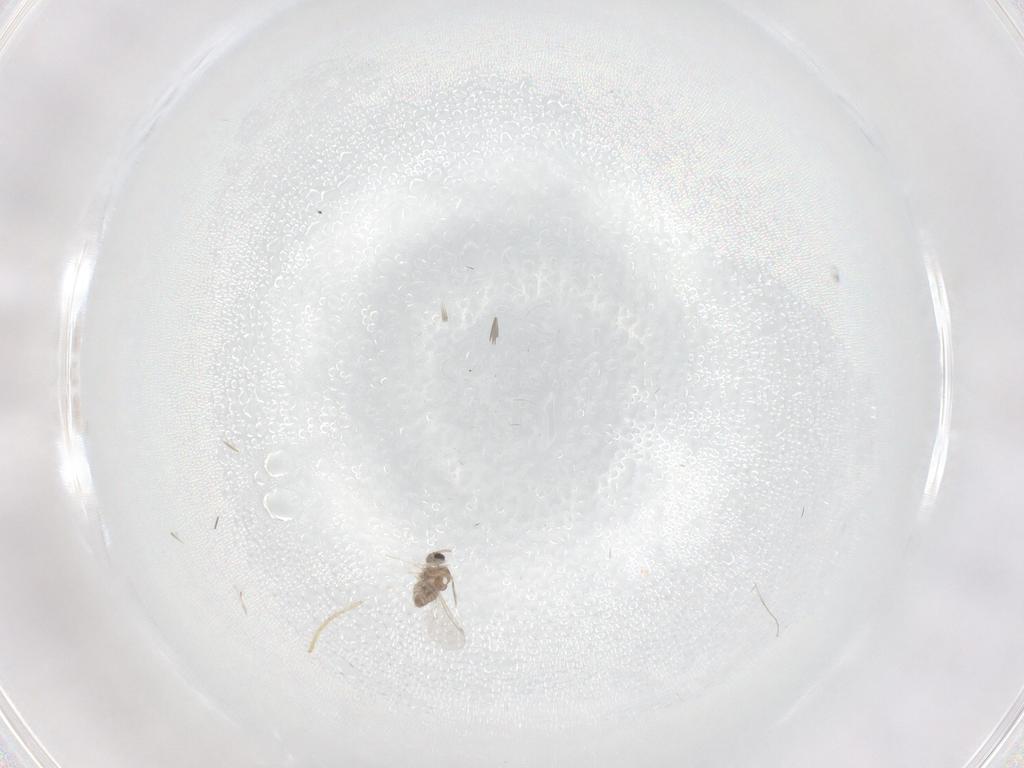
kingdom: Animalia
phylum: Arthropoda
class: Insecta
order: Diptera
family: Cecidomyiidae
